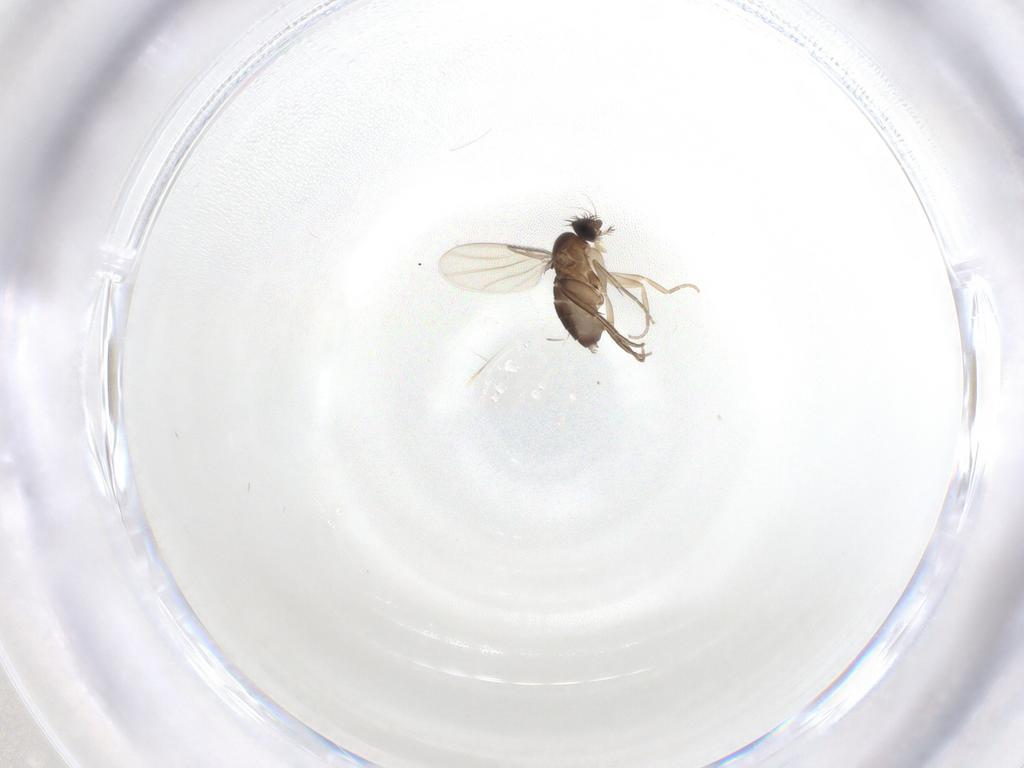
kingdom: Animalia
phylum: Arthropoda
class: Insecta
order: Diptera
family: Phoridae
